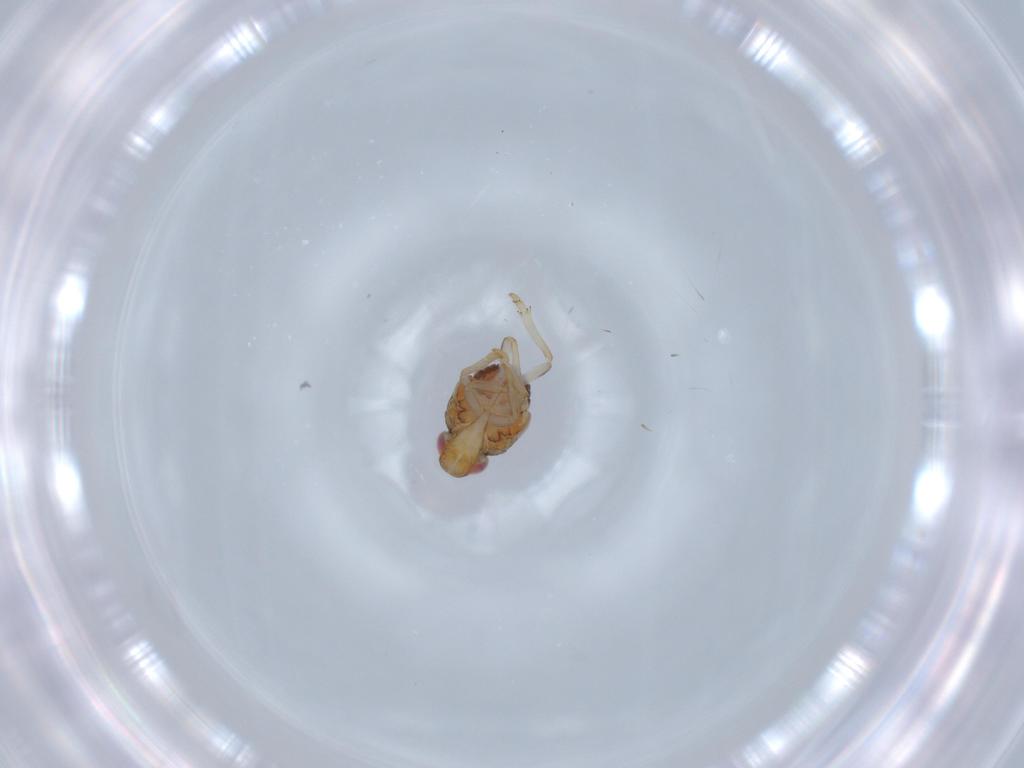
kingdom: Animalia
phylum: Arthropoda
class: Insecta
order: Hemiptera
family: Issidae
